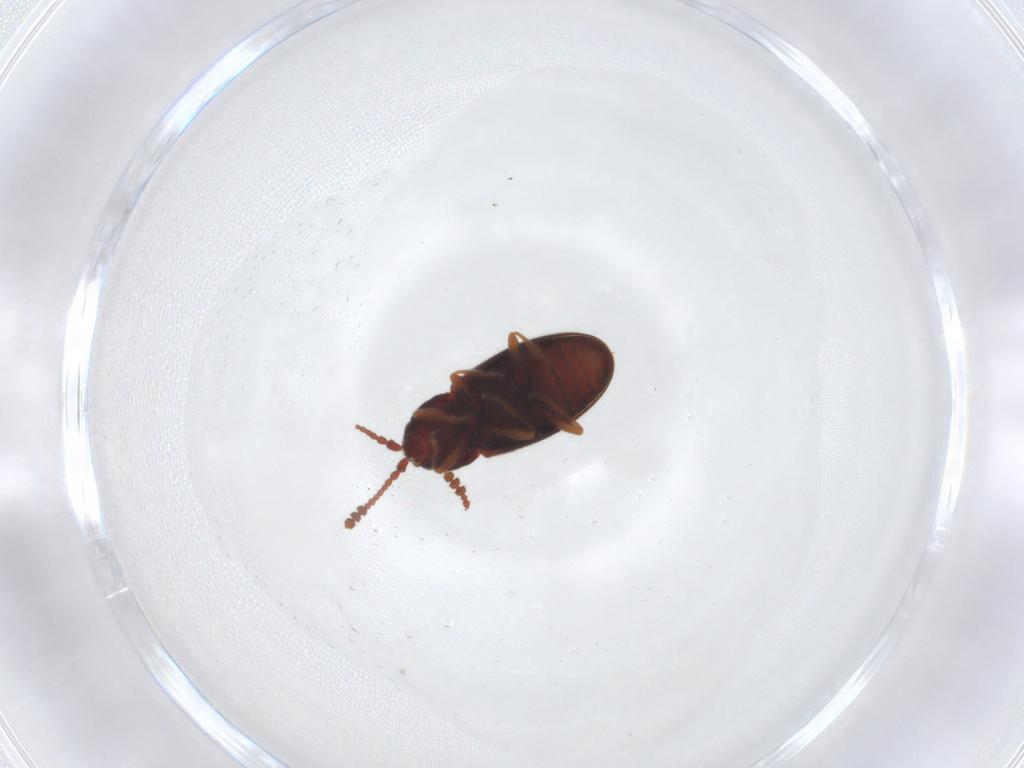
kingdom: Animalia
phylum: Arthropoda
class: Insecta
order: Coleoptera
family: Cryptophagidae
